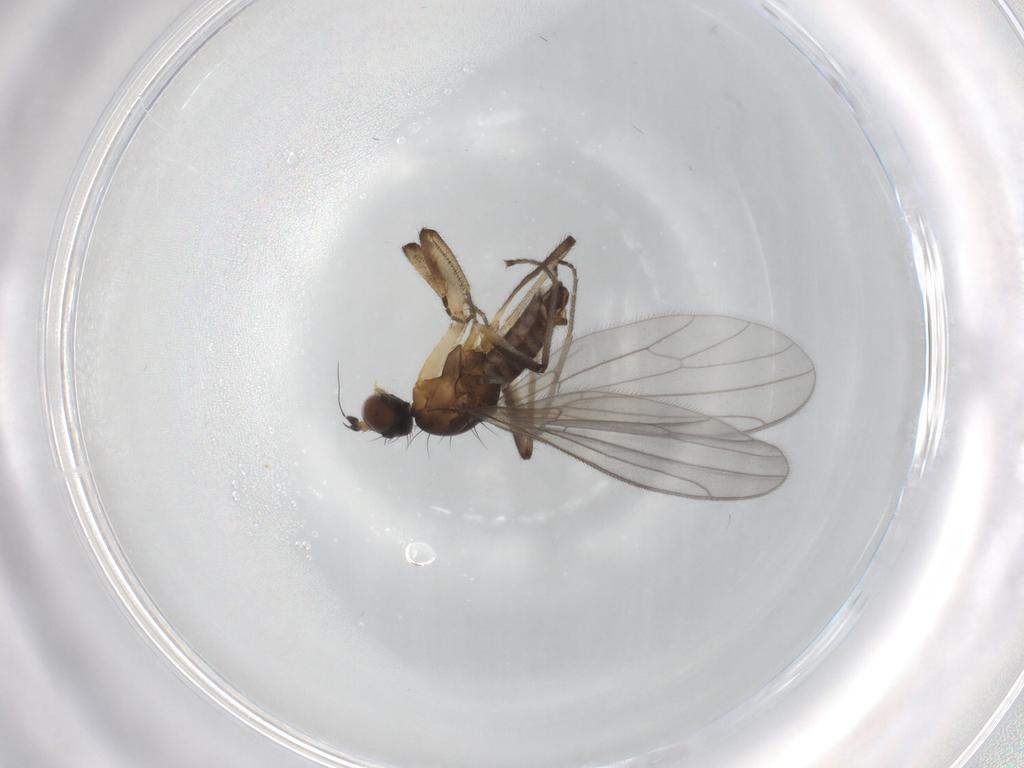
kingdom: Animalia
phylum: Arthropoda
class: Insecta
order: Diptera
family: Empididae
